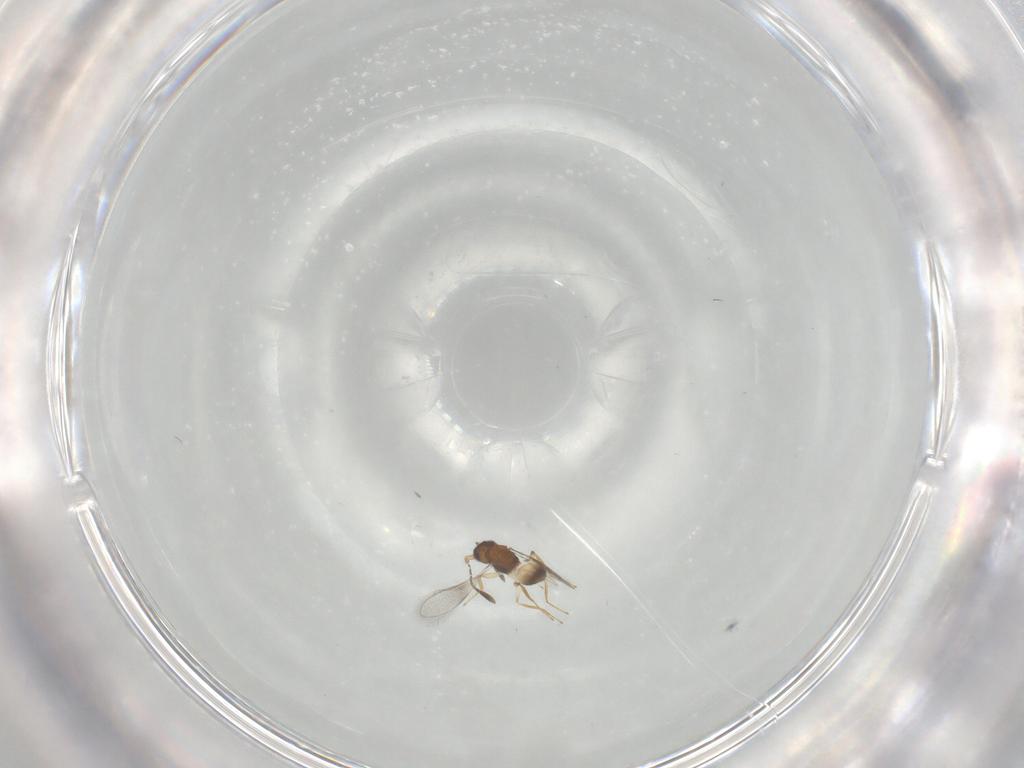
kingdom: Animalia
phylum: Arthropoda
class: Insecta
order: Hymenoptera
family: Mymaridae
